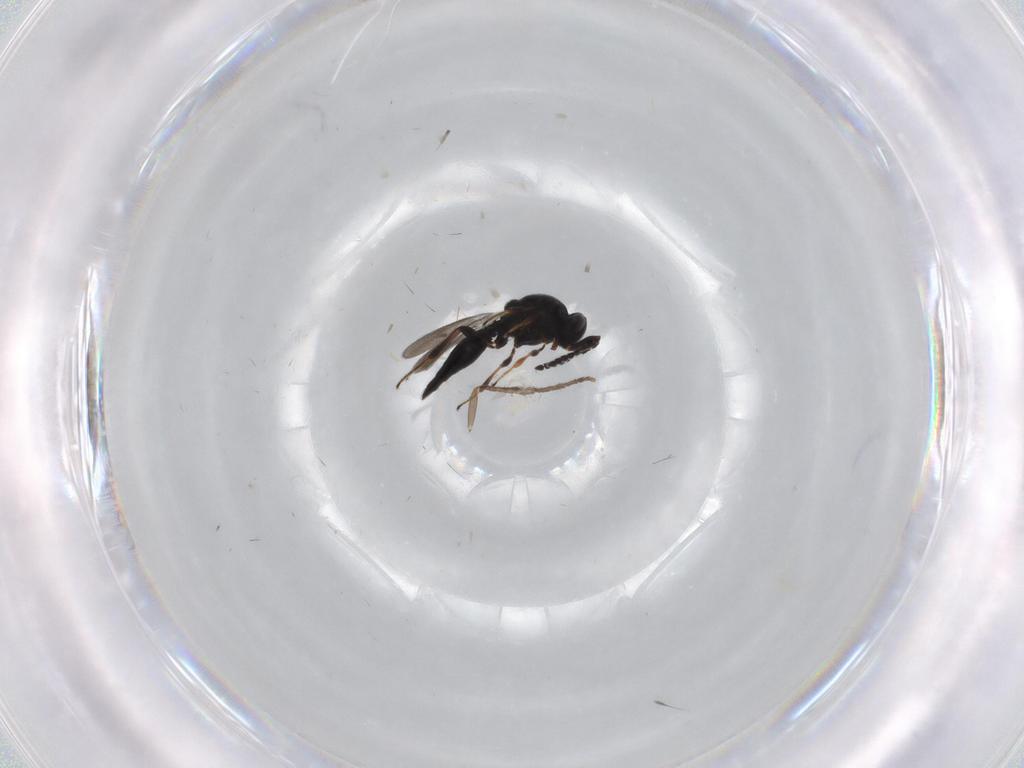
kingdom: Animalia
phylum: Arthropoda
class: Insecta
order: Hymenoptera
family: Platygastridae
